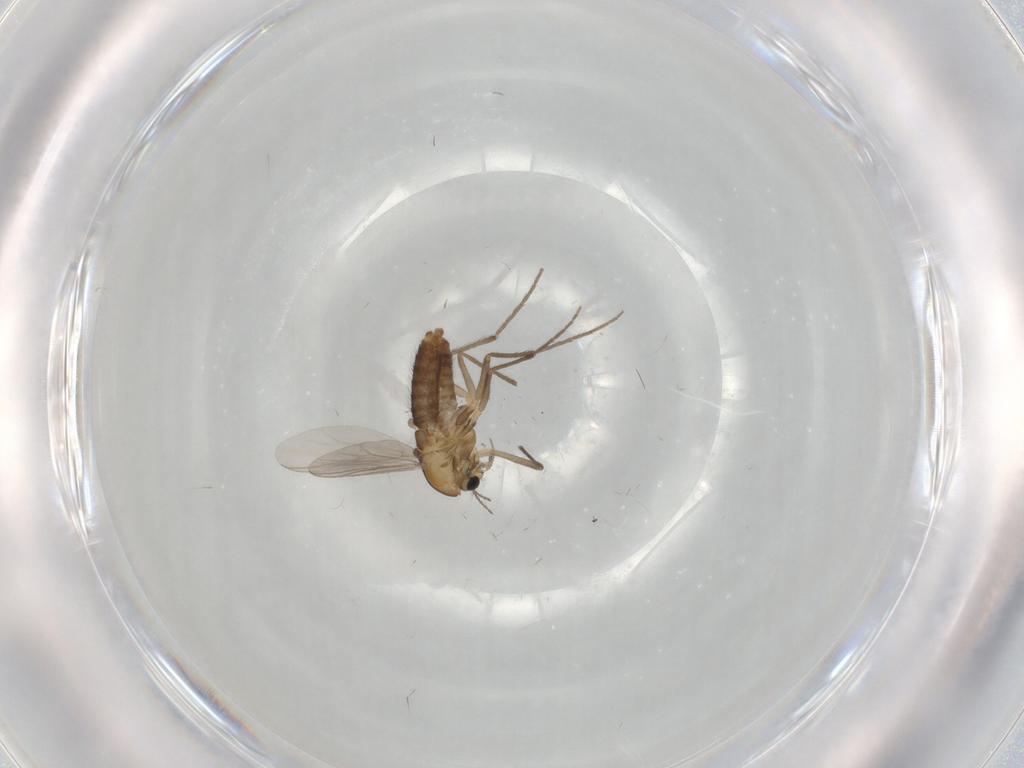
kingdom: Animalia
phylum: Arthropoda
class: Insecta
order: Diptera
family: Chironomidae
